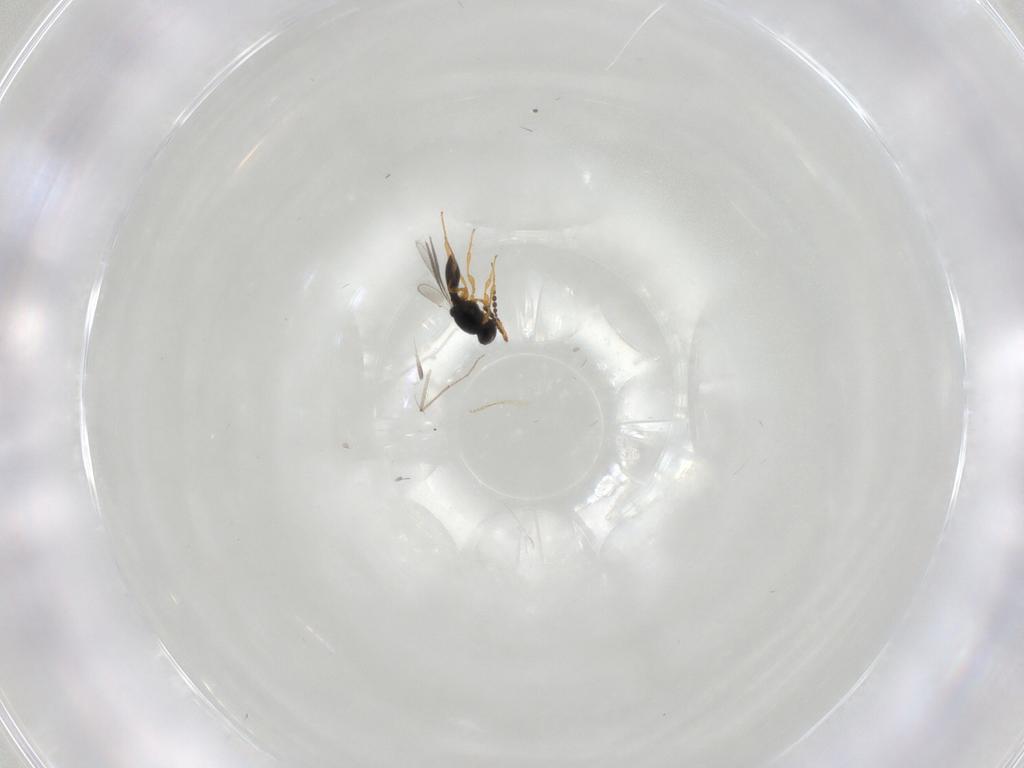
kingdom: Animalia
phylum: Arthropoda
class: Insecta
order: Hymenoptera
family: Platygastridae
